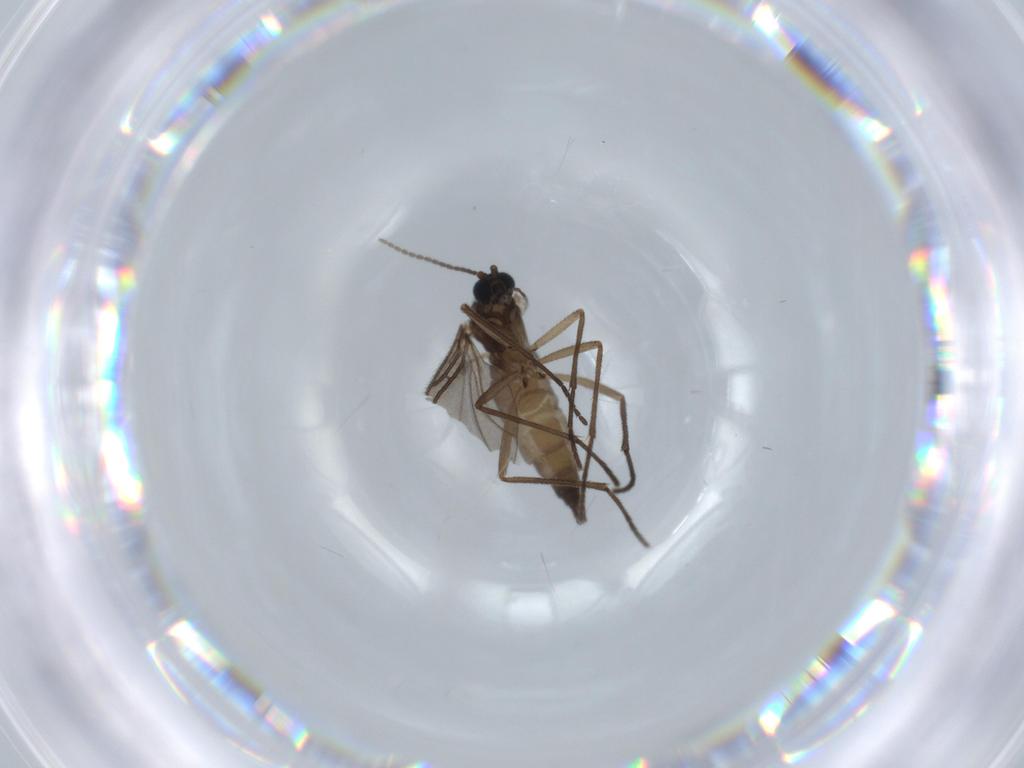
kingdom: Animalia
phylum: Arthropoda
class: Insecta
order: Diptera
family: Sciaridae
